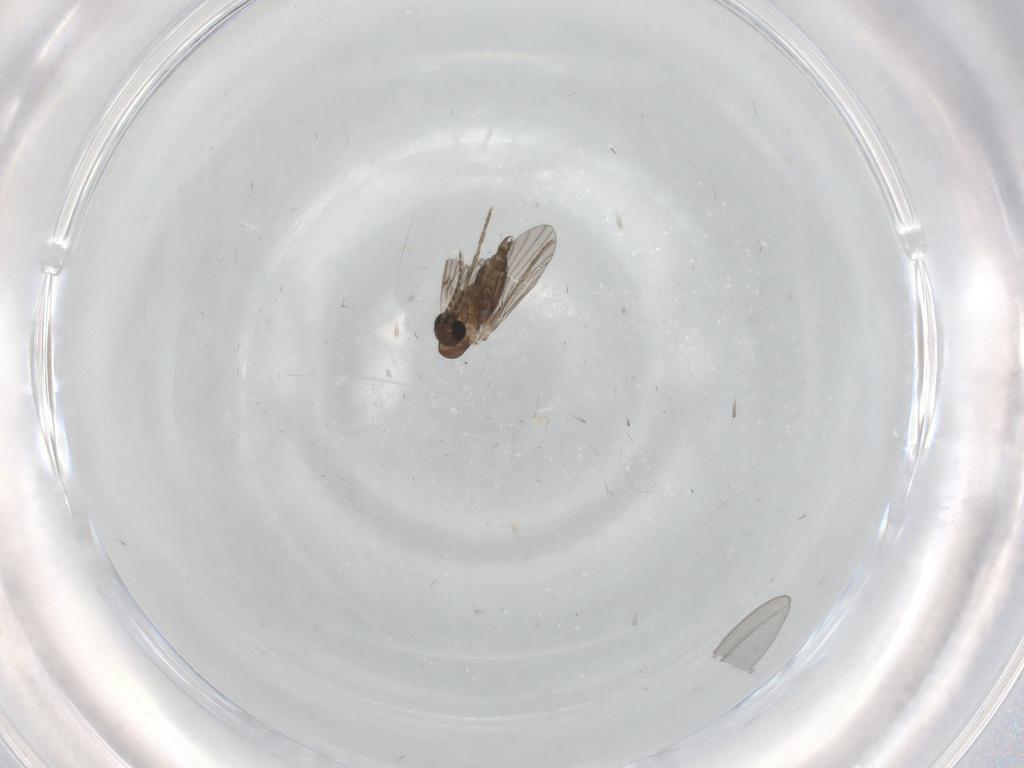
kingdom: Animalia
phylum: Arthropoda
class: Insecta
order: Diptera
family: Cecidomyiidae
